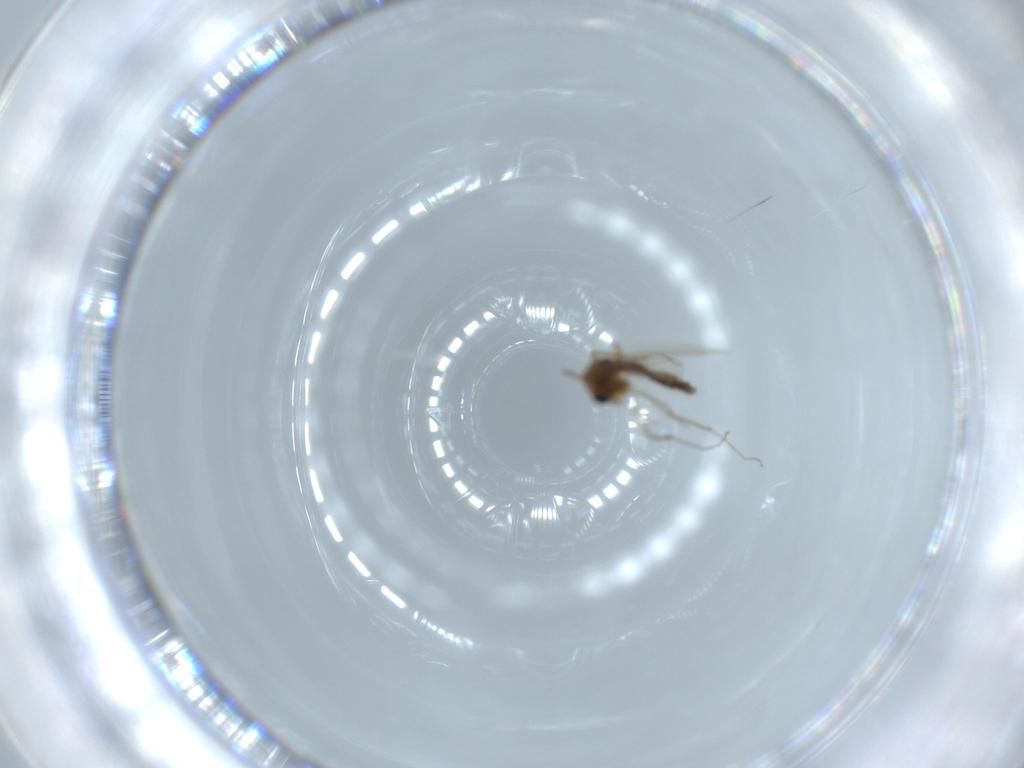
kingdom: Animalia
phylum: Arthropoda
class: Insecta
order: Diptera
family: Chironomidae
